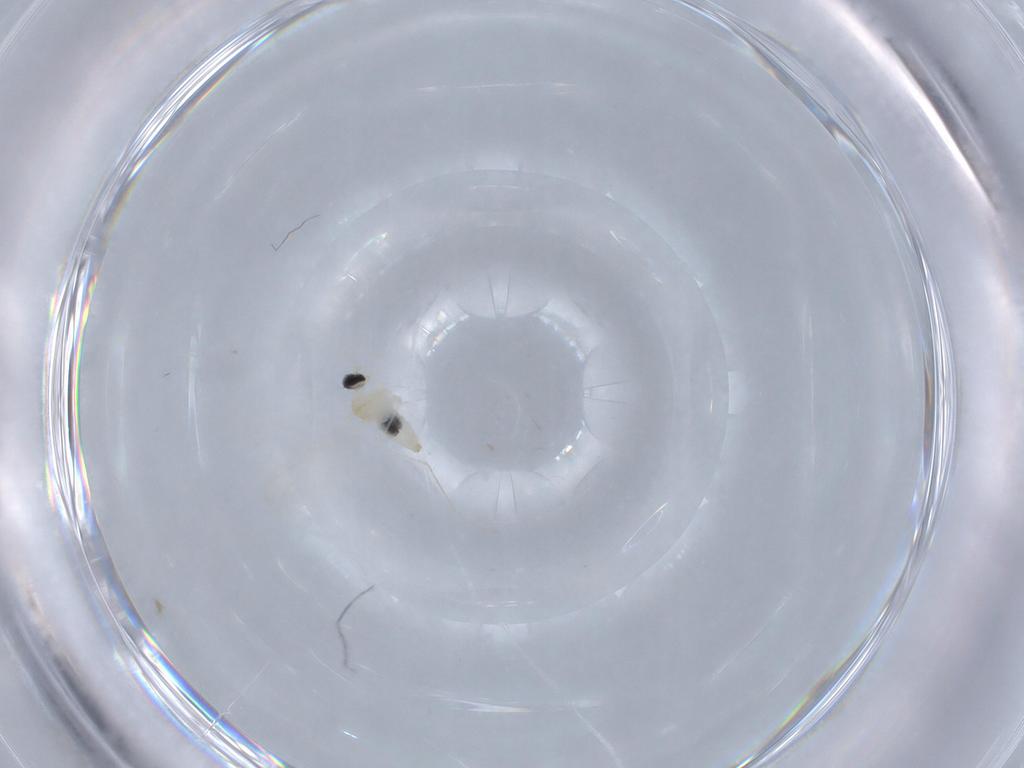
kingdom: Animalia
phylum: Arthropoda
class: Insecta
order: Diptera
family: Cecidomyiidae
